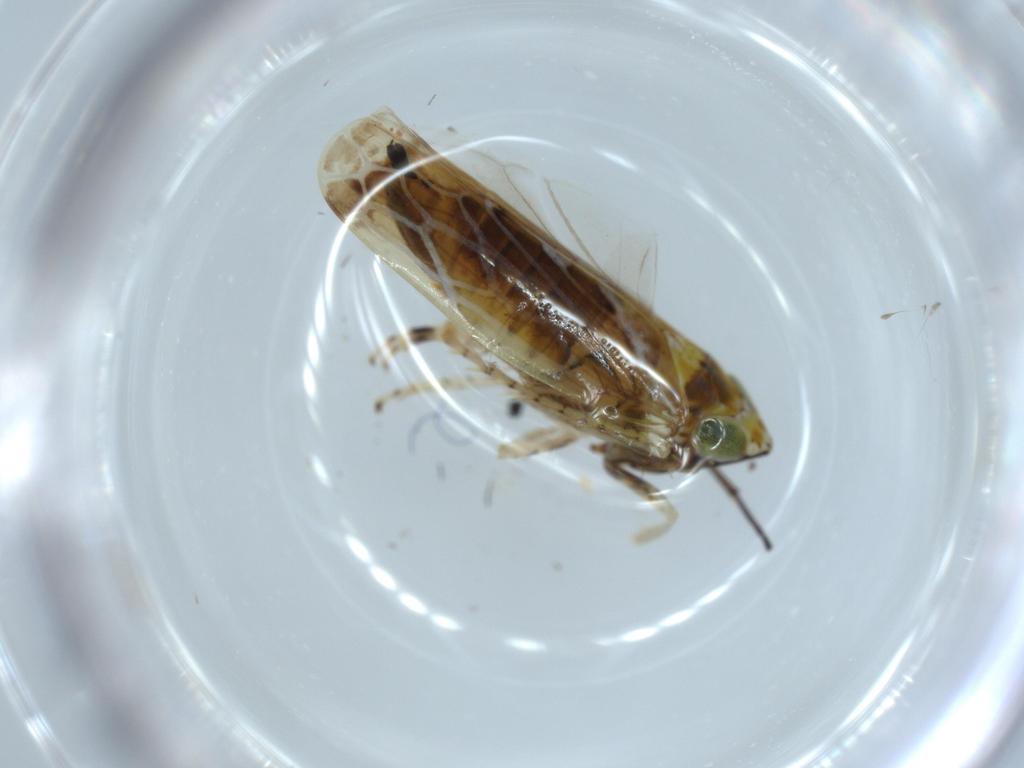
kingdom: Animalia
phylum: Arthropoda
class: Insecta
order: Hemiptera
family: Cicadellidae
